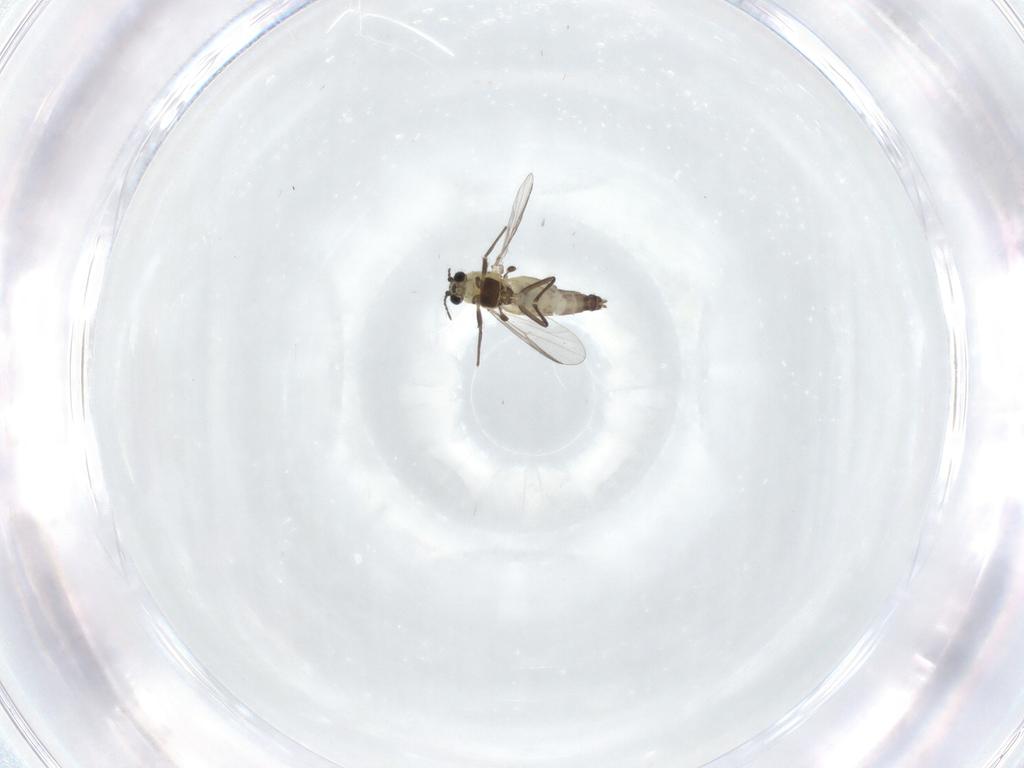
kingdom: Animalia
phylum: Arthropoda
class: Insecta
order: Diptera
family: Chironomidae
